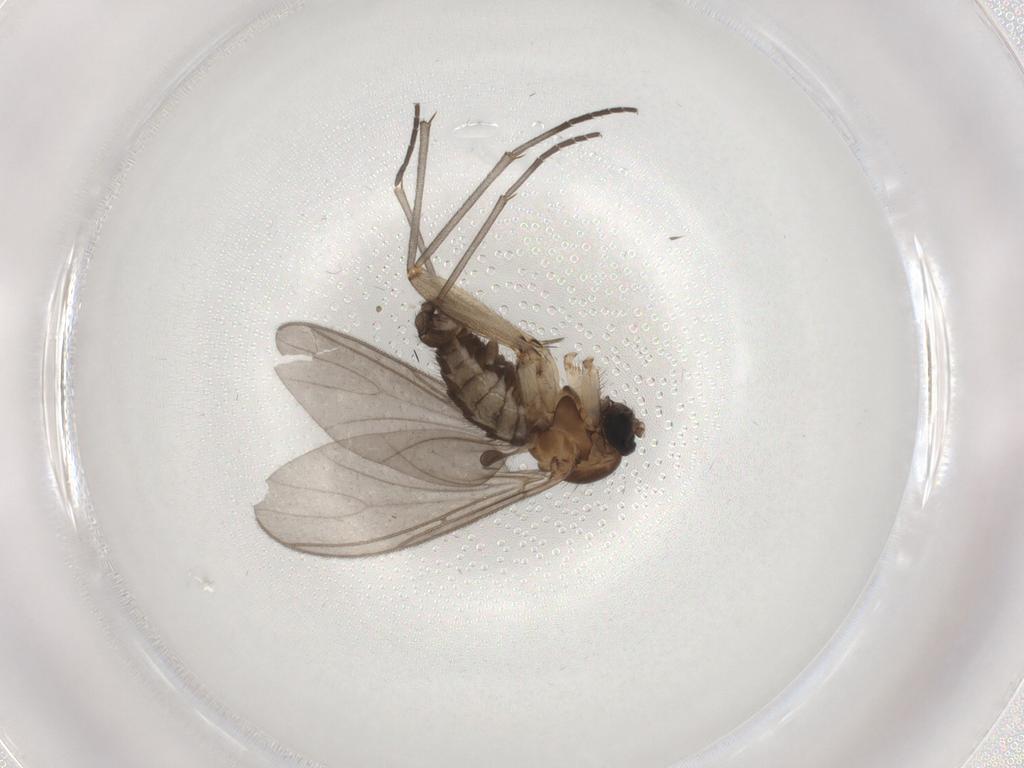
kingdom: Animalia
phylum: Arthropoda
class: Insecta
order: Diptera
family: Sciaridae
